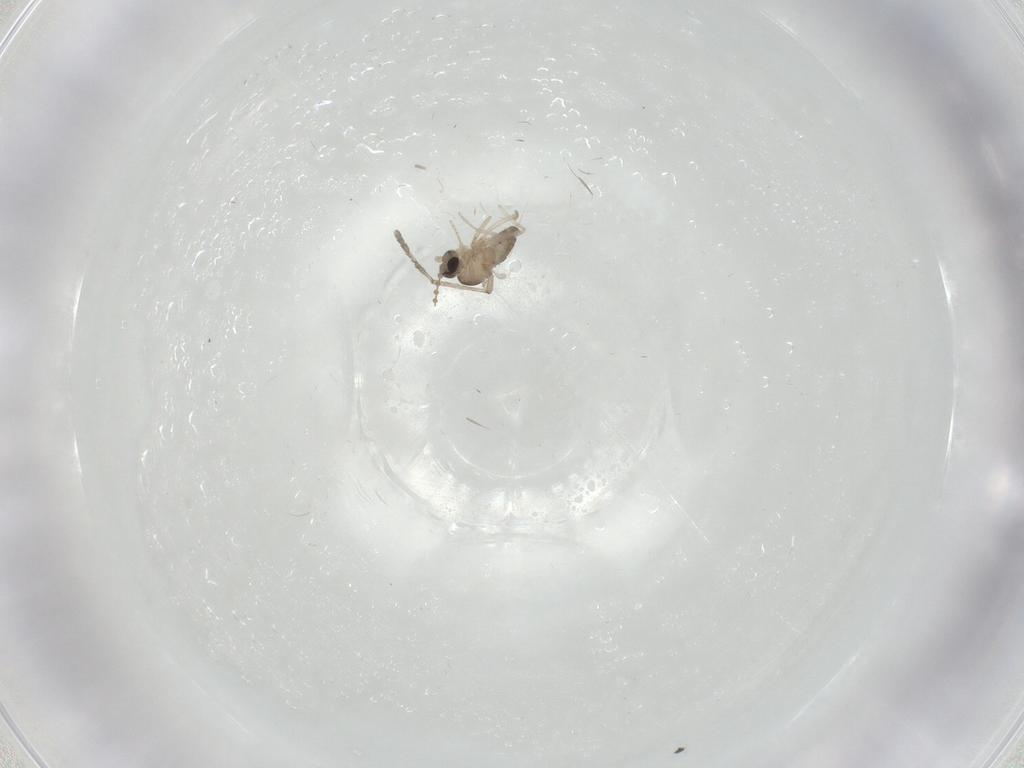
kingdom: Animalia
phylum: Arthropoda
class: Insecta
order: Diptera
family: Cecidomyiidae
